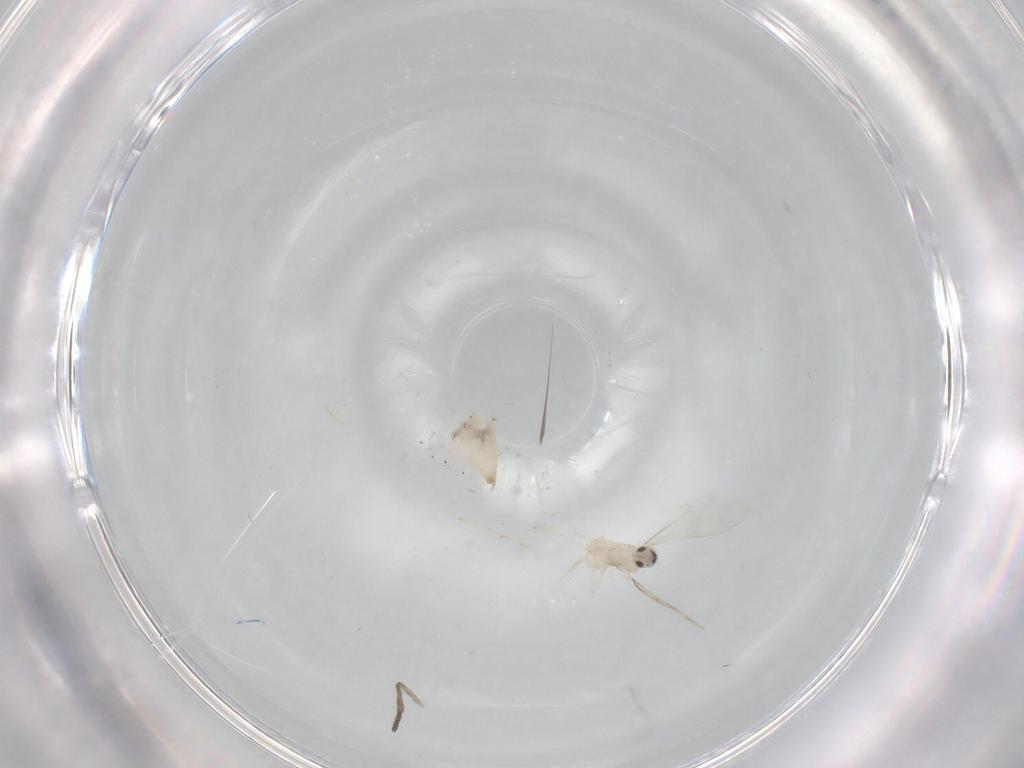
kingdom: Animalia
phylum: Arthropoda
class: Insecta
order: Diptera
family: Cecidomyiidae
